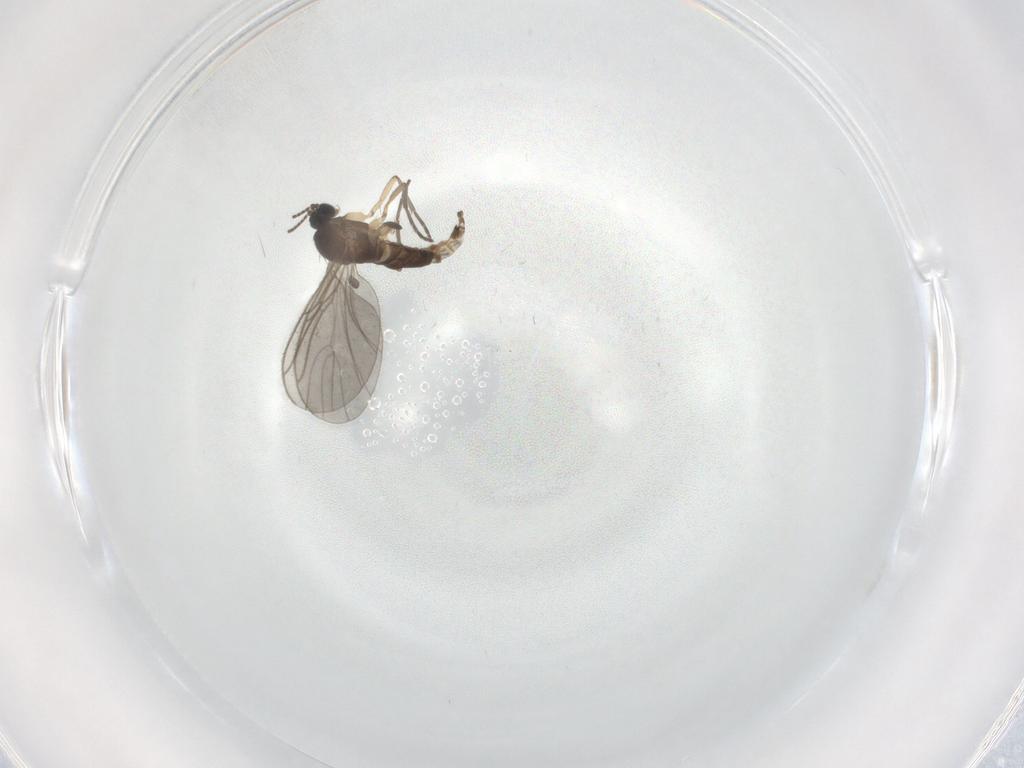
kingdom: Animalia
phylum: Arthropoda
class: Insecta
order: Diptera
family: Sciaridae
